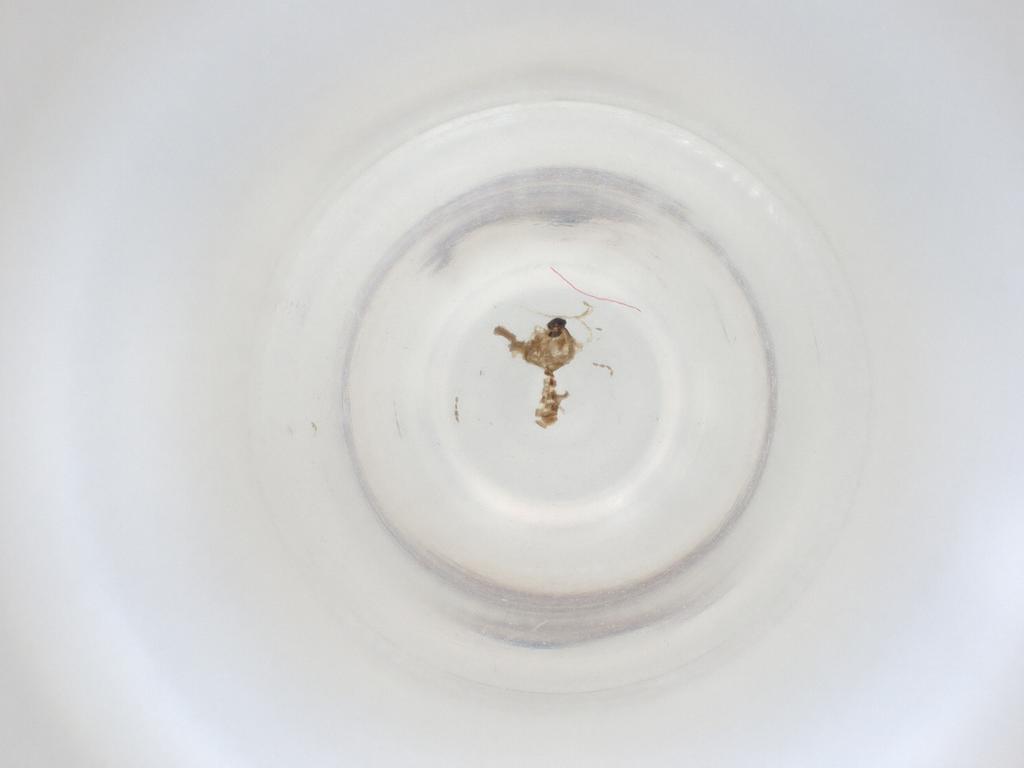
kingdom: Animalia
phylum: Arthropoda
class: Insecta
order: Diptera
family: Cecidomyiidae
